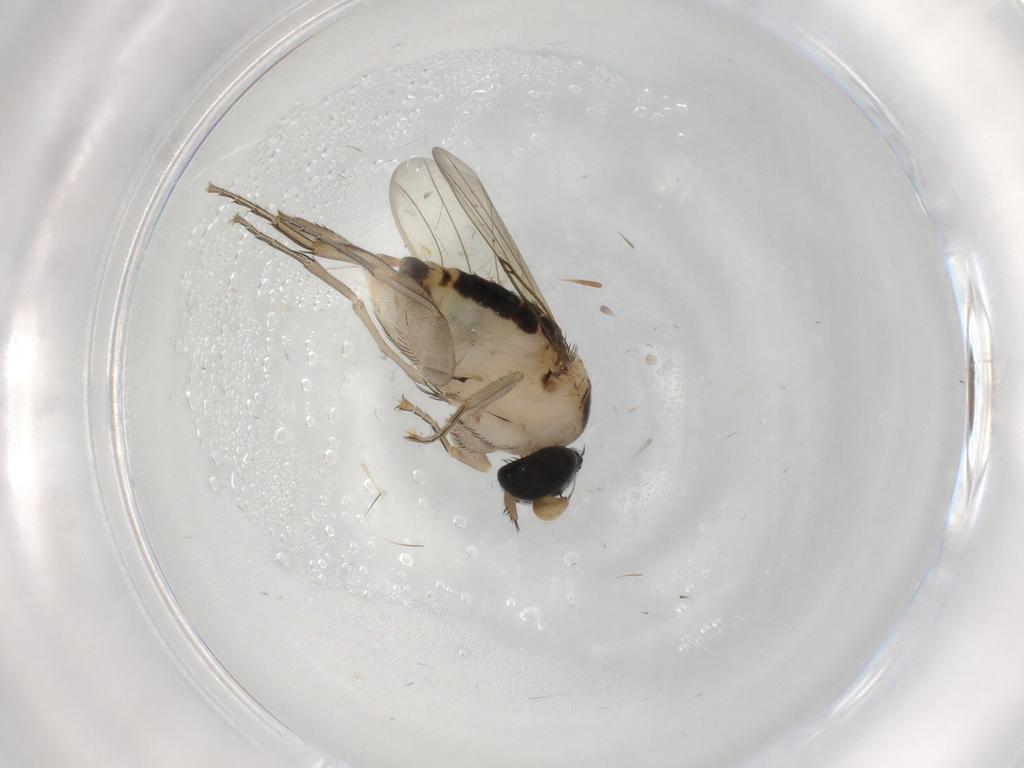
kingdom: Animalia
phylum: Arthropoda
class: Insecta
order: Diptera
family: Phoridae
